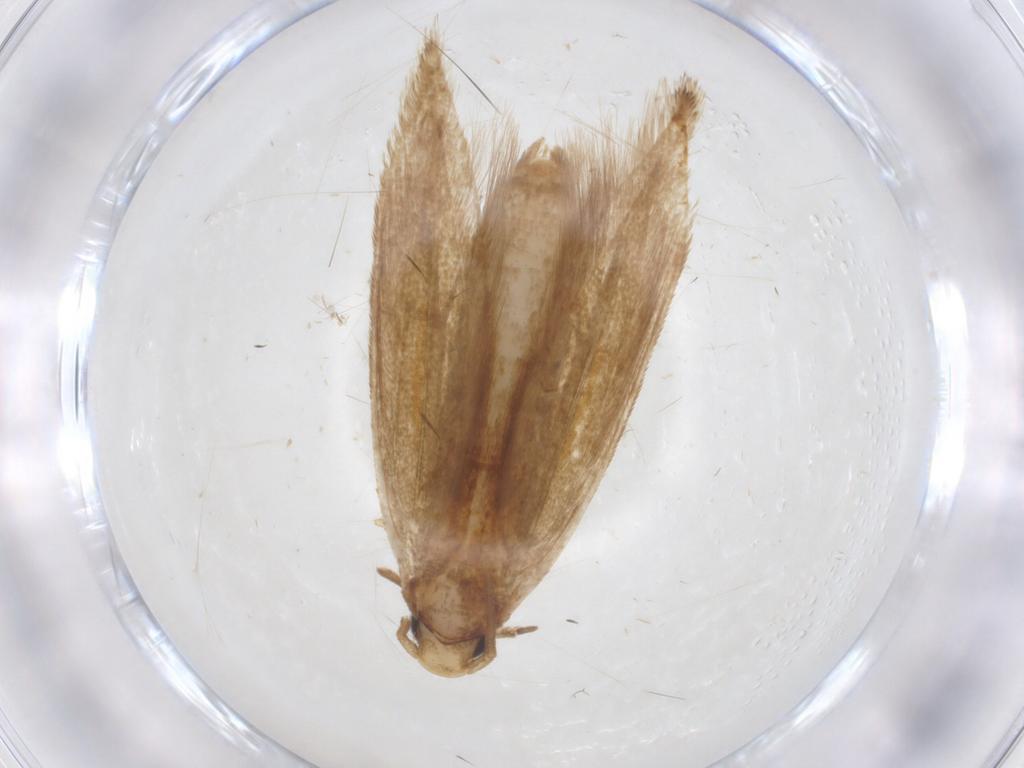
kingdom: Animalia
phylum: Arthropoda
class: Insecta
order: Lepidoptera
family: Tineidae
